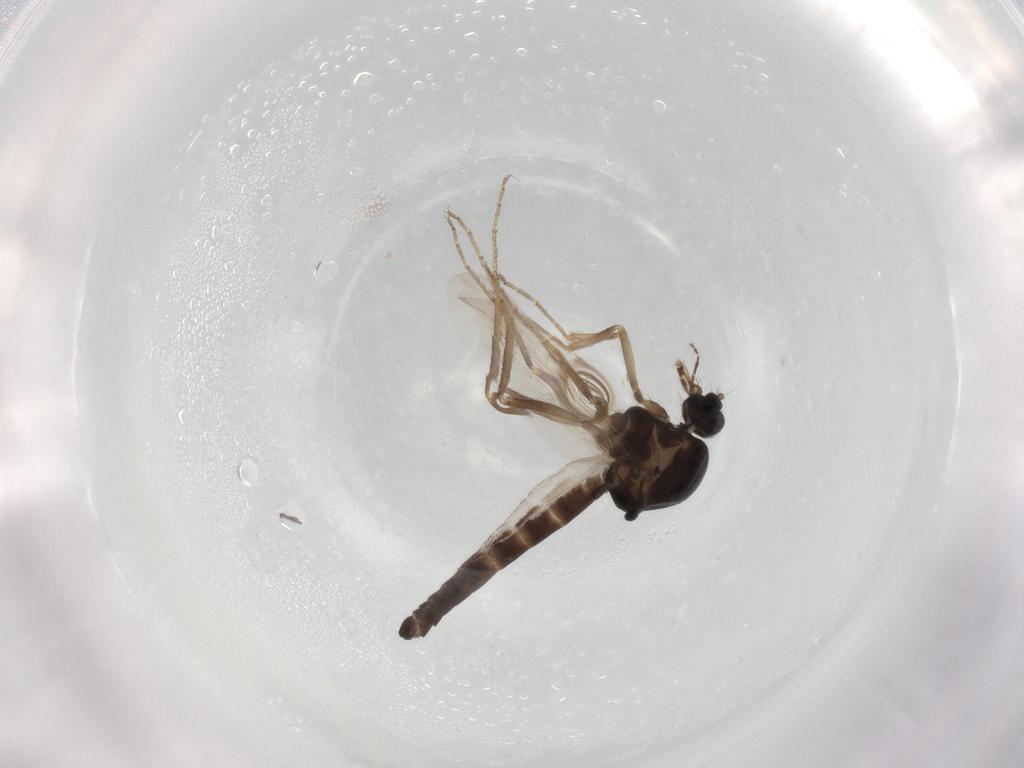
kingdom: Animalia
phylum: Arthropoda
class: Insecta
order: Diptera
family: Ceratopogonidae
